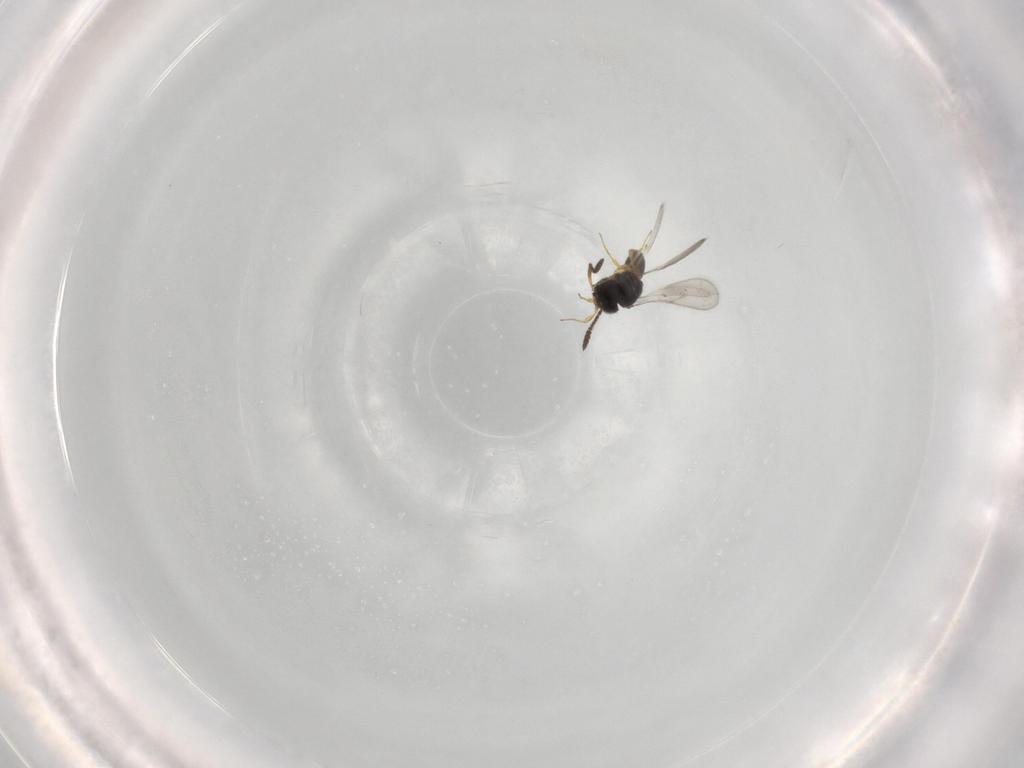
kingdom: Animalia
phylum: Arthropoda
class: Insecta
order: Hymenoptera
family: Scelionidae
